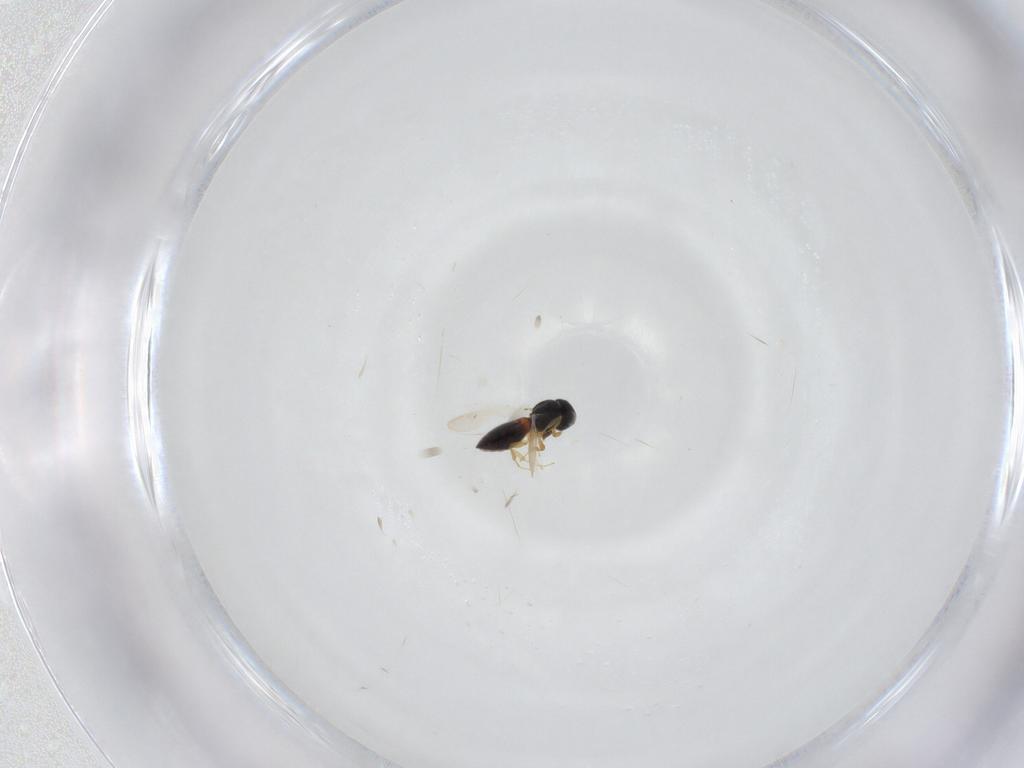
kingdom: Animalia
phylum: Arthropoda
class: Insecta
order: Hymenoptera
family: Platygastridae
